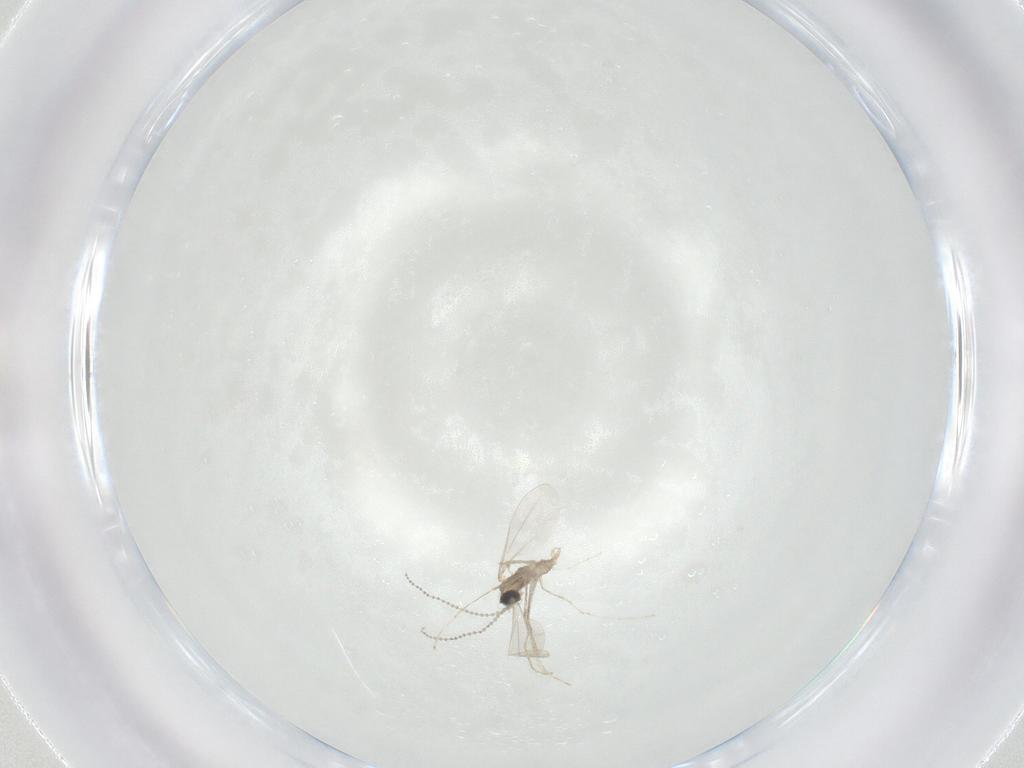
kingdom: Animalia
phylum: Arthropoda
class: Insecta
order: Diptera
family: Cecidomyiidae
